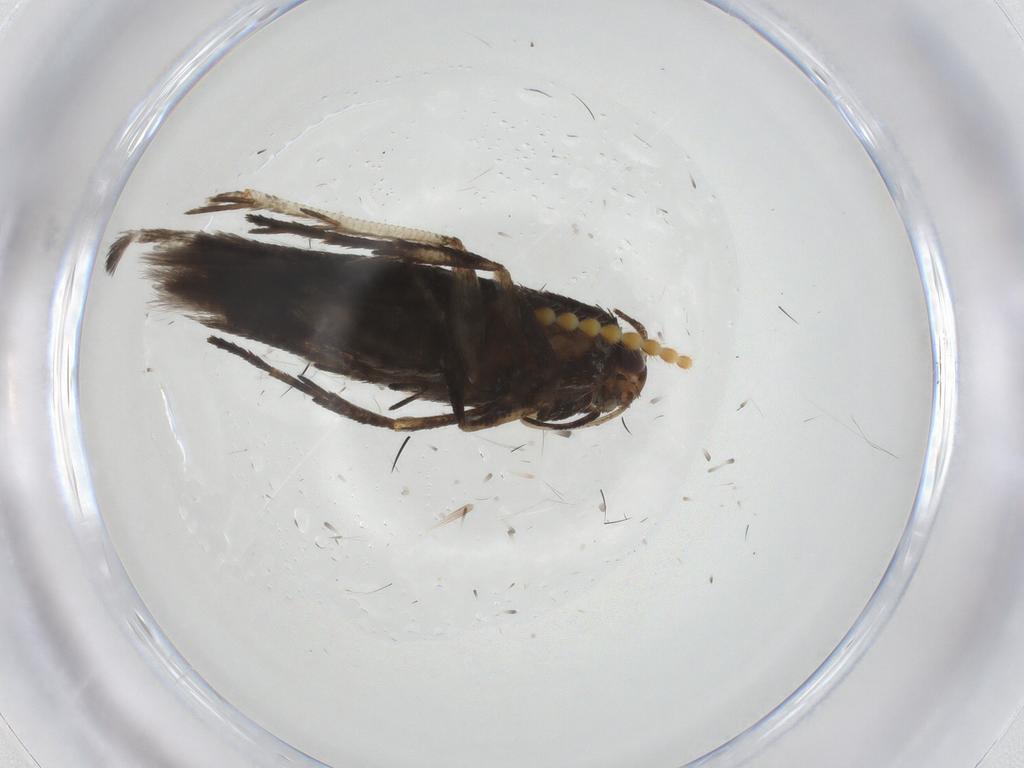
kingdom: Animalia
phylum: Arthropoda
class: Insecta
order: Lepidoptera
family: Gelechiidae
